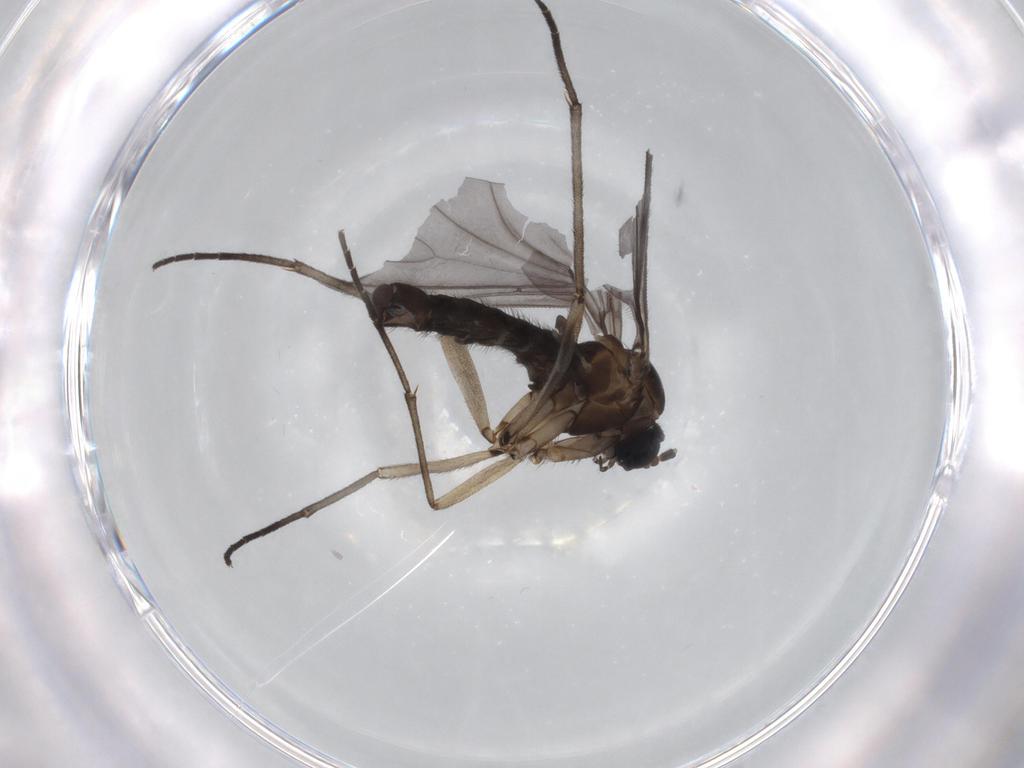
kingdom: Animalia
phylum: Arthropoda
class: Insecta
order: Diptera
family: Sciaridae
